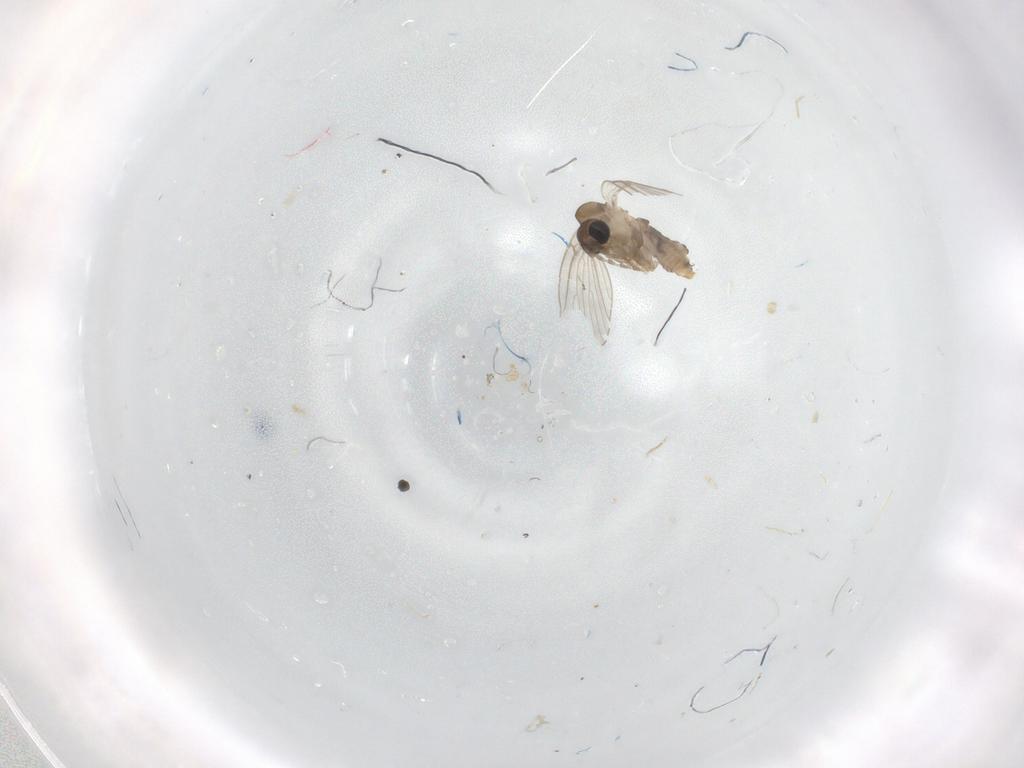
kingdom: Animalia
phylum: Arthropoda
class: Insecta
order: Diptera
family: Psychodidae
